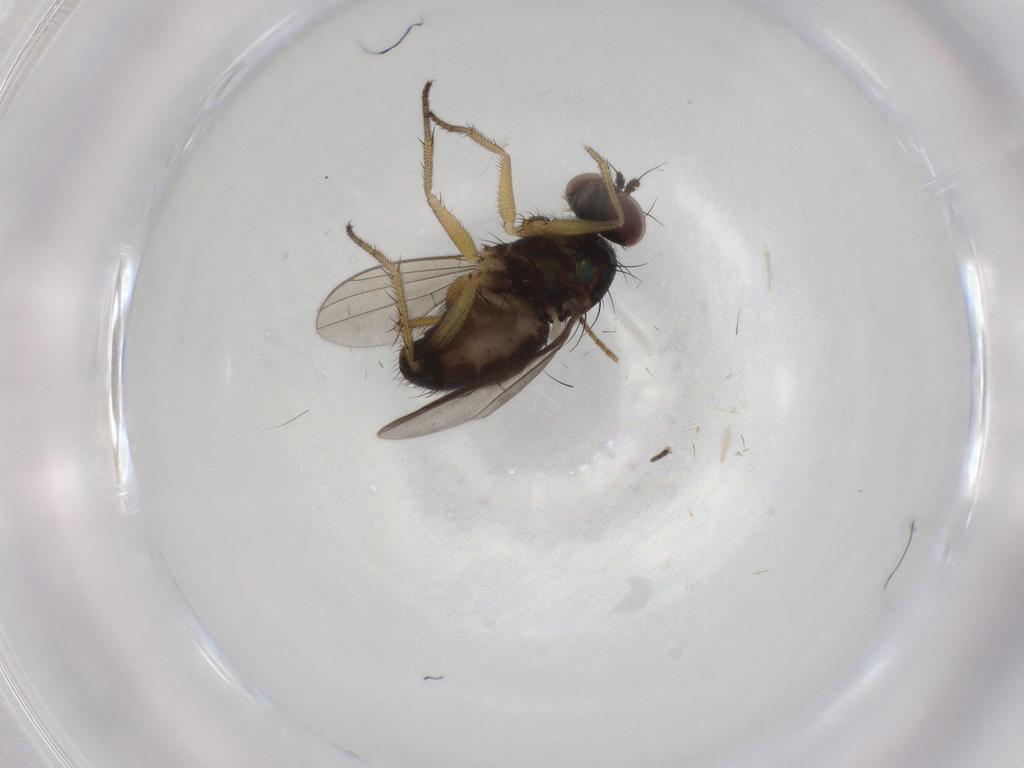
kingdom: Animalia
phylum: Arthropoda
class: Insecta
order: Diptera
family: Dolichopodidae
